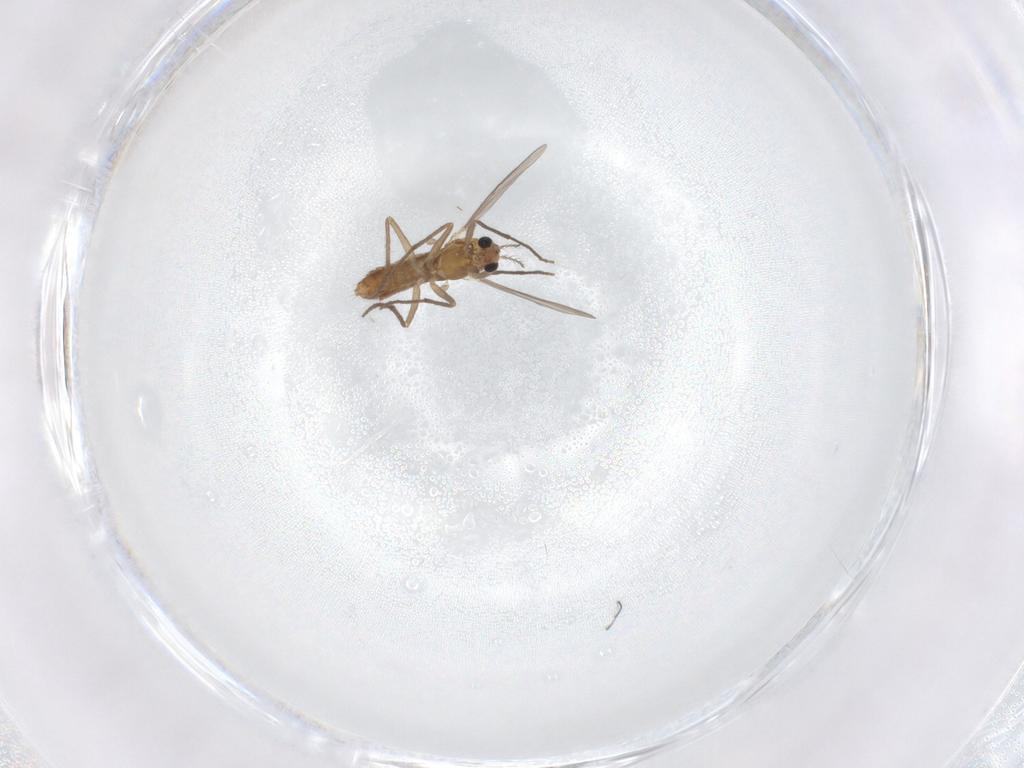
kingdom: Animalia
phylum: Arthropoda
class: Insecta
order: Diptera
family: Chironomidae
